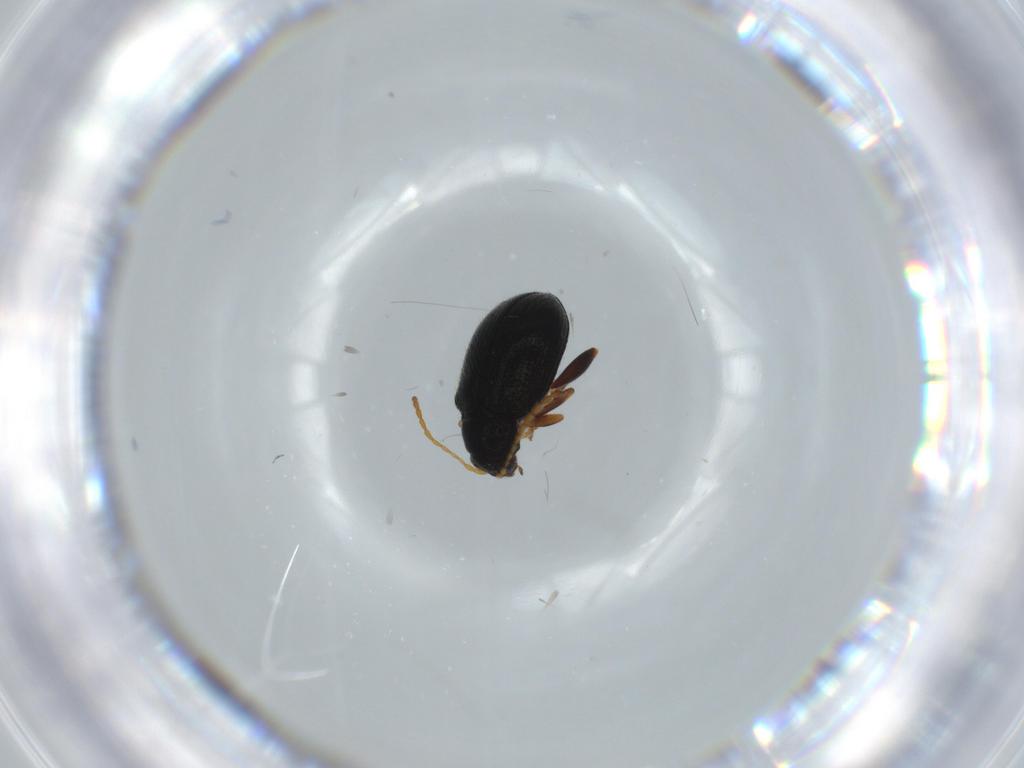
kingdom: Animalia
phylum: Arthropoda
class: Insecta
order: Coleoptera
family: Chrysomelidae
